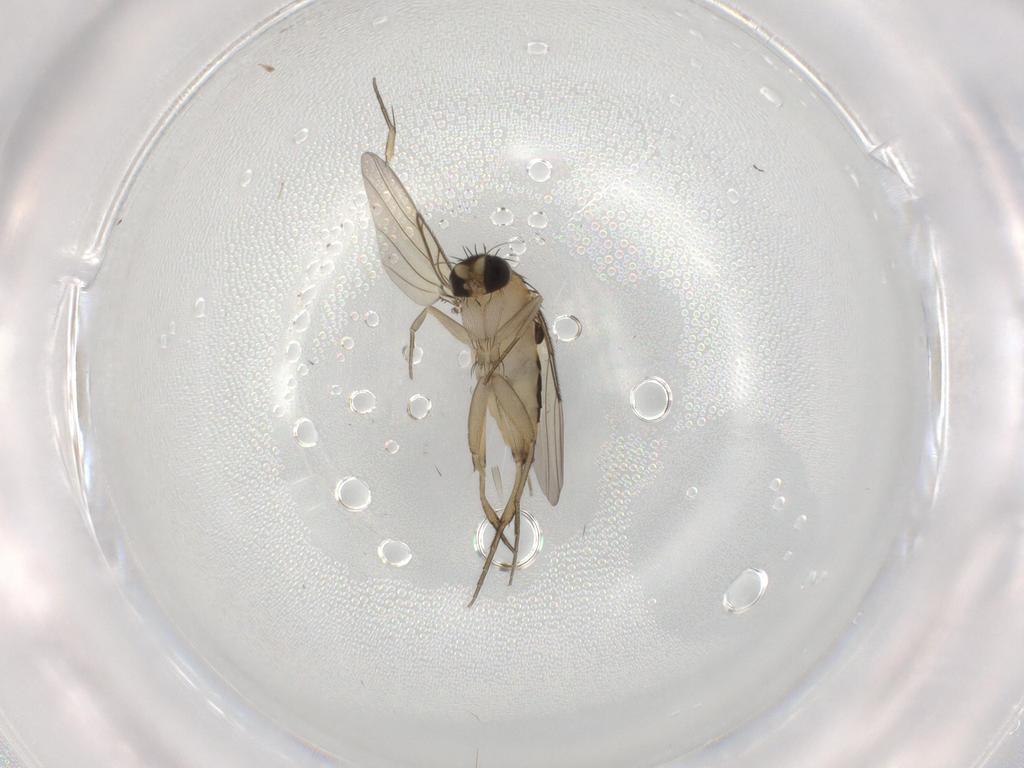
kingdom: Animalia
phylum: Arthropoda
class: Insecta
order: Diptera
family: Phoridae
